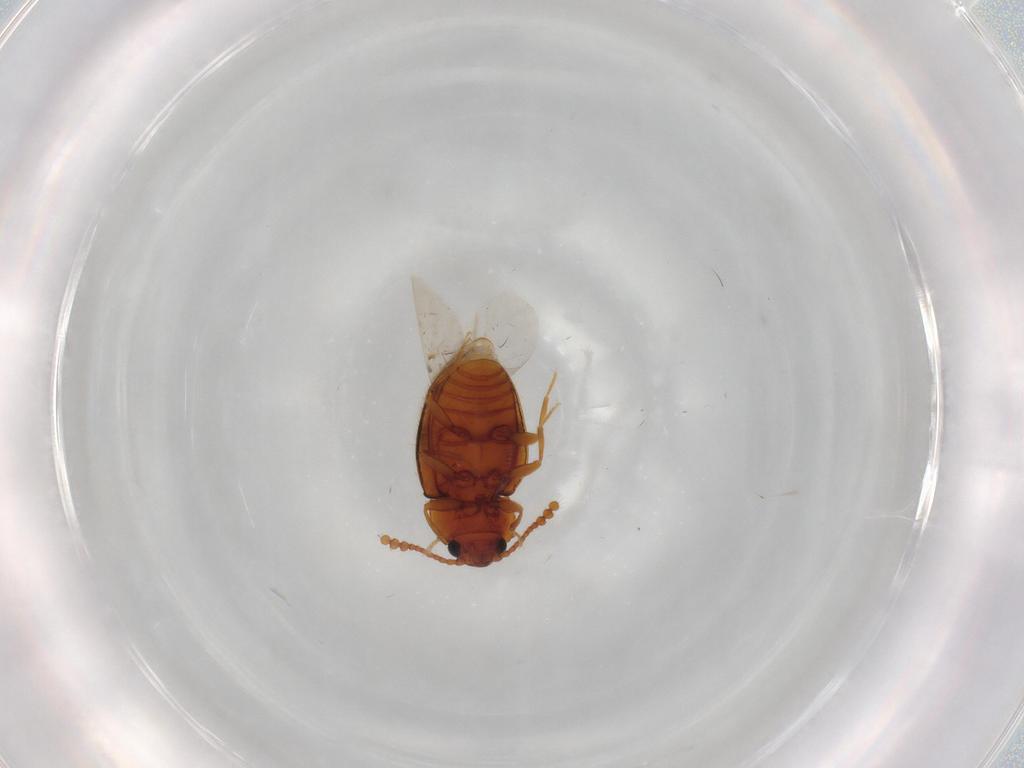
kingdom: Animalia
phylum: Arthropoda
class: Insecta
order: Coleoptera
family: Erotylidae
